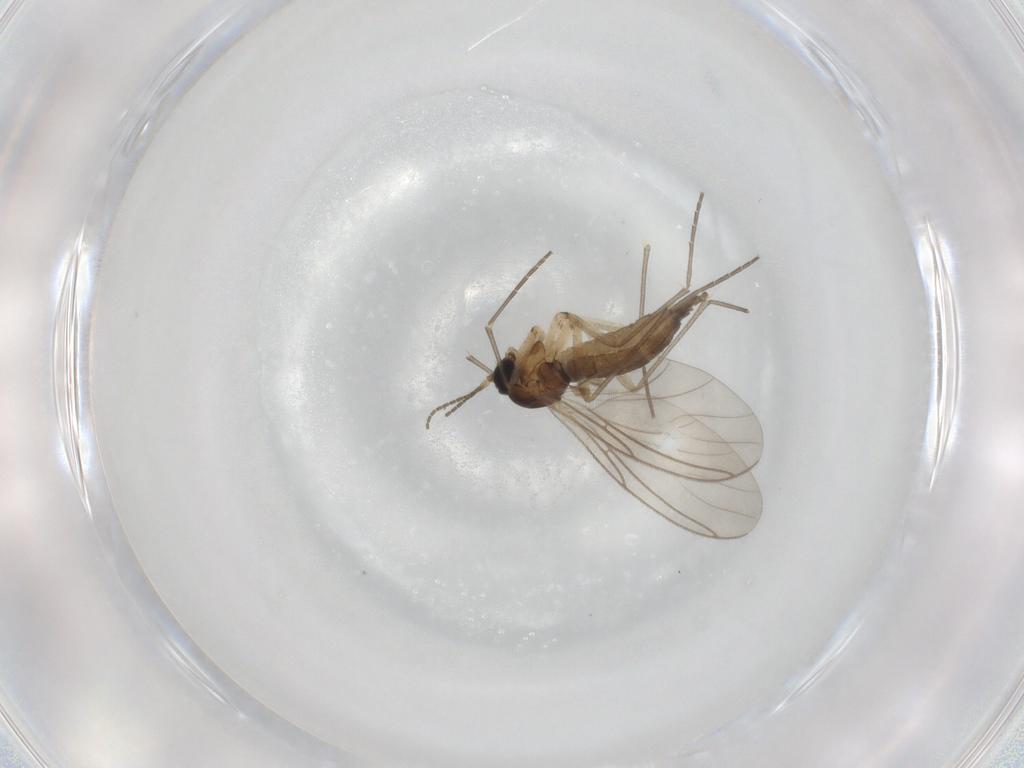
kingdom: Animalia
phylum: Arthropoda
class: Insecta
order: Diptera
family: Sciaridae
